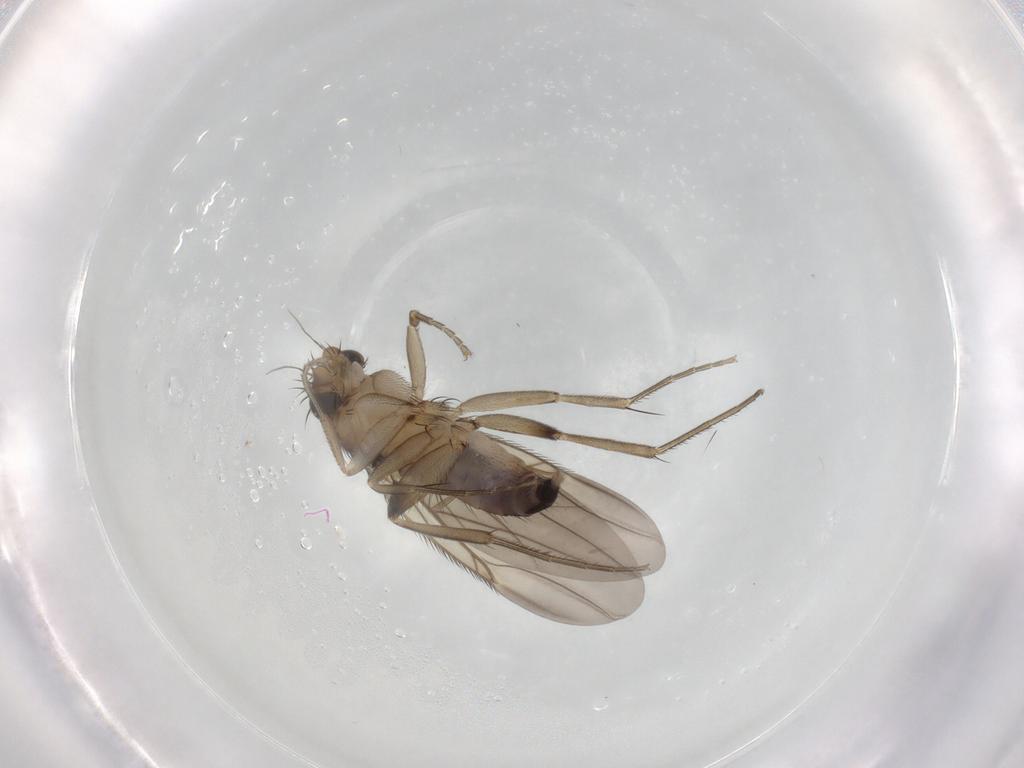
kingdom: Animalia
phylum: Arthropoda
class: Insecta
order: Diptera
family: Phoridae
